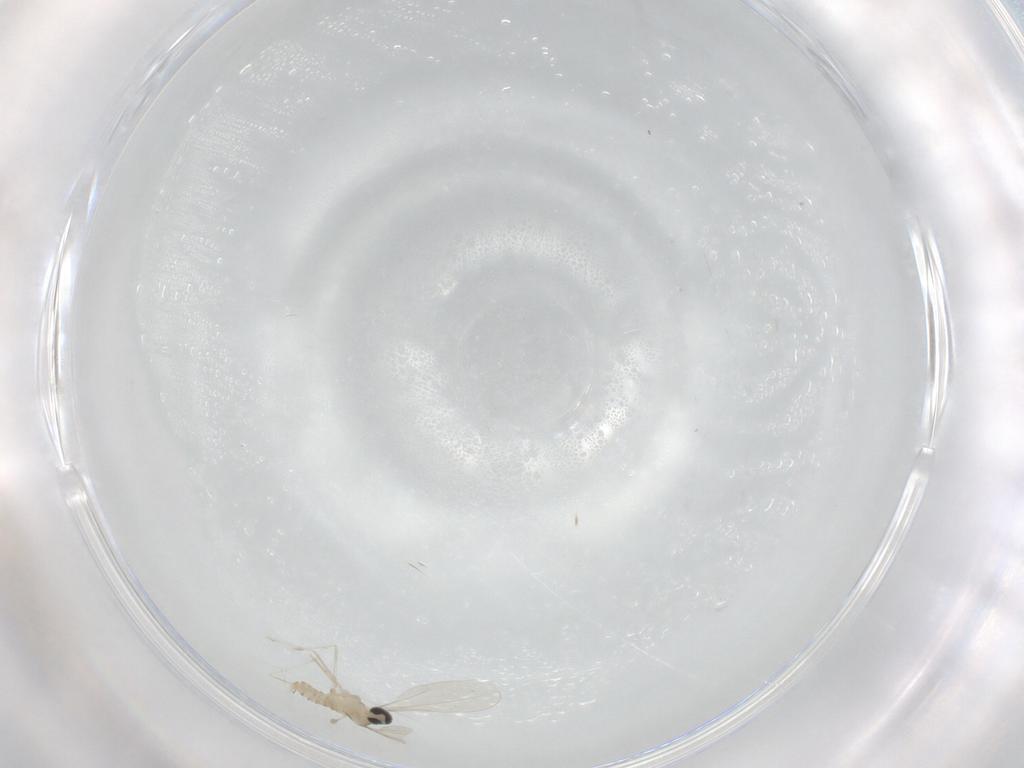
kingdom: Animalia
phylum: Arthropoda
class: Insecta
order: Diptera
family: Cecidomyiidae
